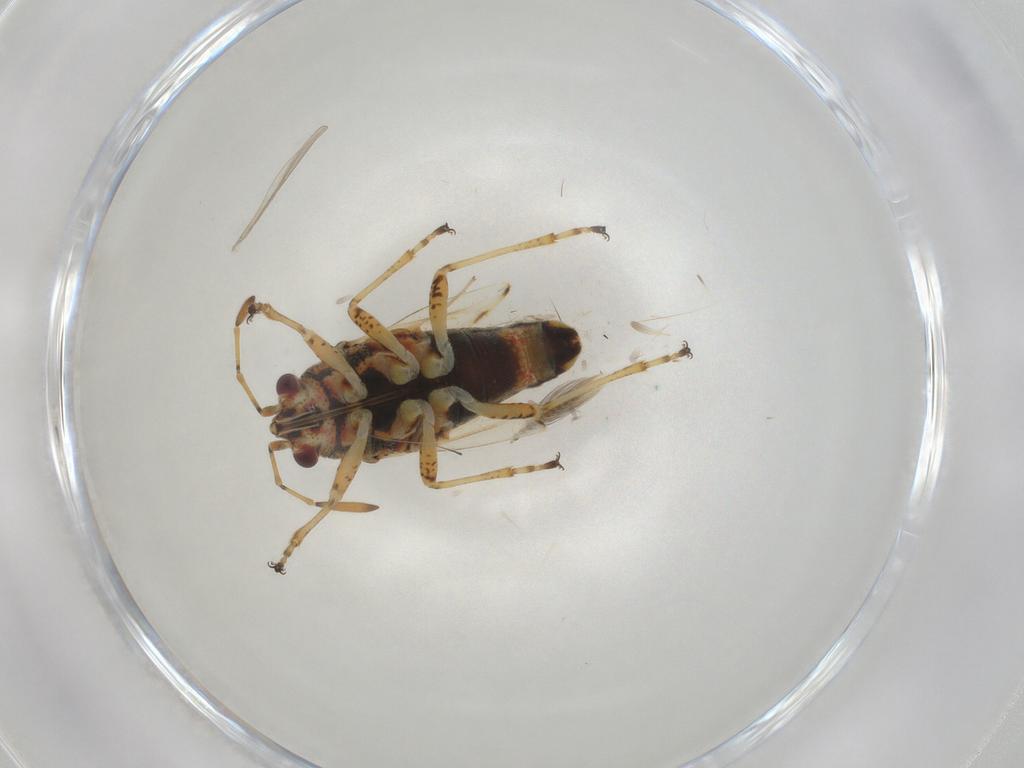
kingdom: Animalia
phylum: Arthropoda
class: Insecta
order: Hemiptera
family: Lygaeidae
